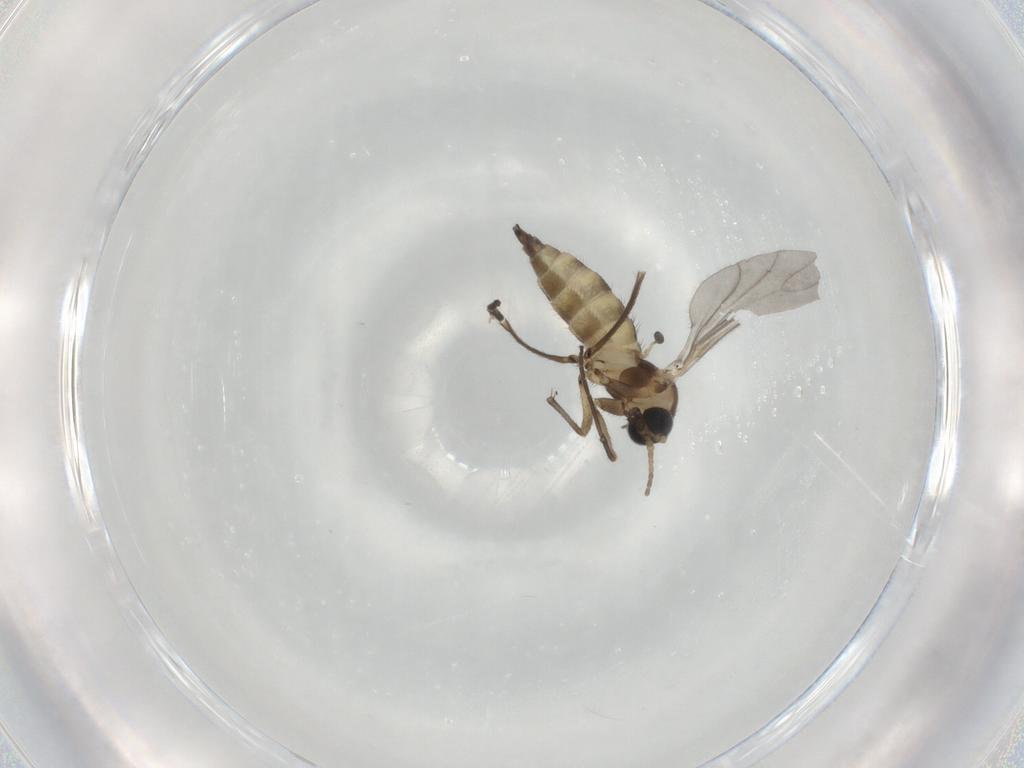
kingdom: Animalia
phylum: Arthropoda
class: Insecta
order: Diptera
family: Sciaridae
